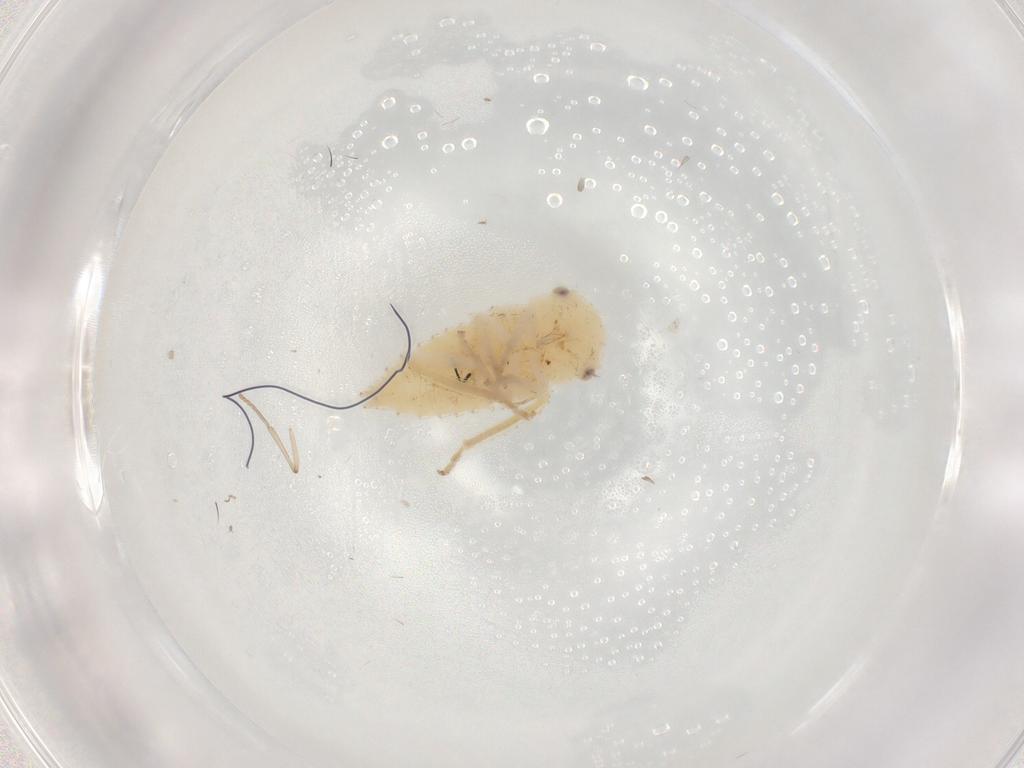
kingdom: Animalia
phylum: Arthropoda
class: Insecta
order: Hemiptera
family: Cicadellidae
